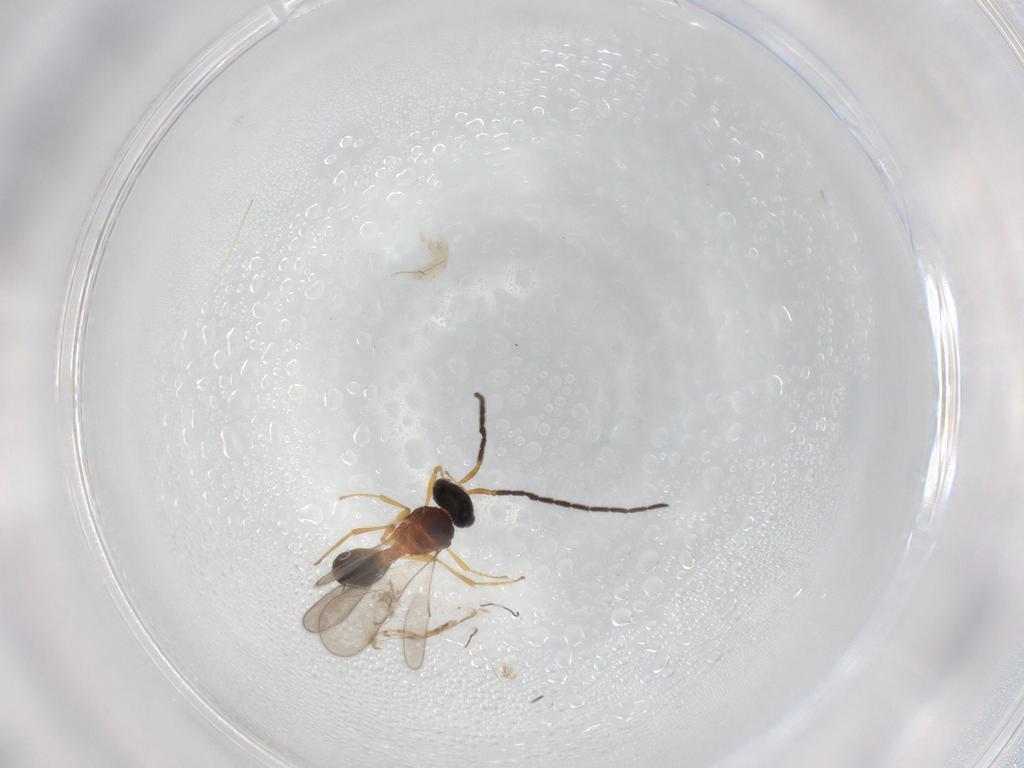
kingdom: Animalia
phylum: Arthropoda
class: Insecta
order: Hymenoptera
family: Scelionidae
